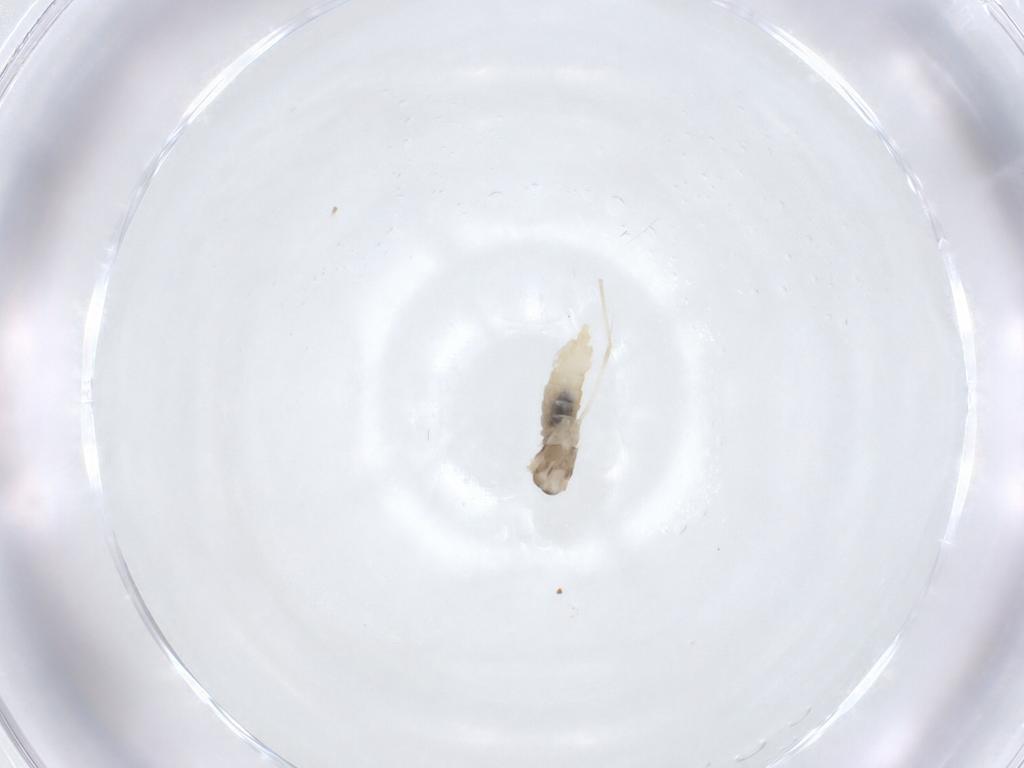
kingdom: Animalia
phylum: Arthropoda
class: Insecta
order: Diptera
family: Cecidomyiidae
